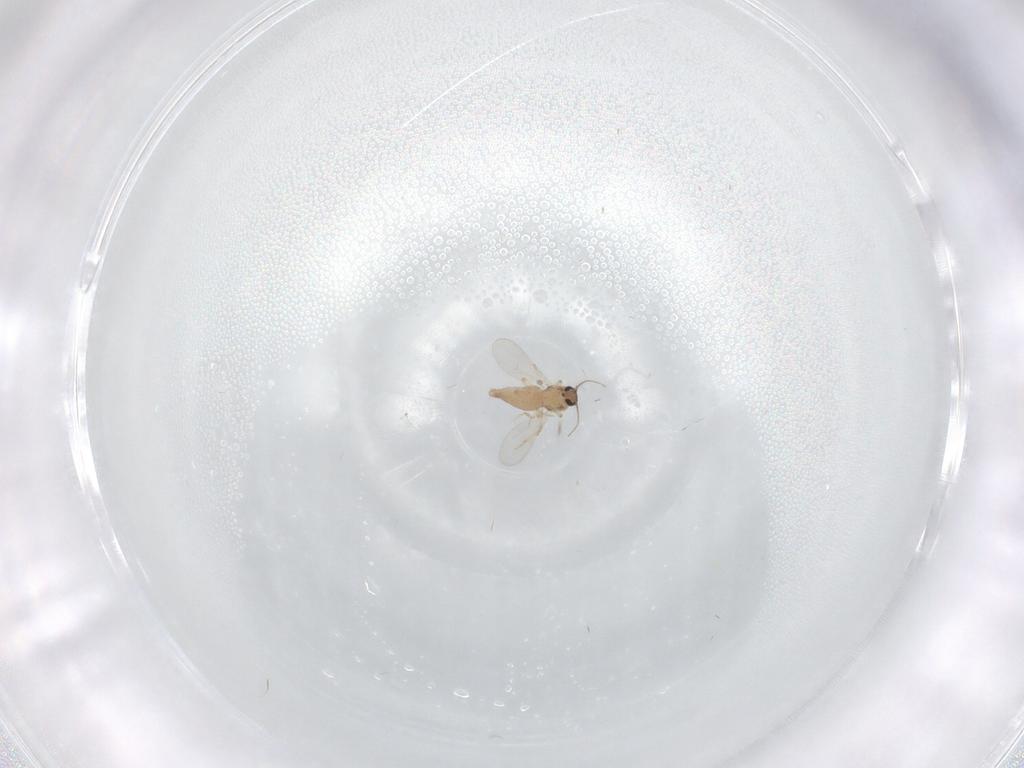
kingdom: Animalia
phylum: Arthropoda
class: Insecta
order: Diptera
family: Ceratopogonidae
